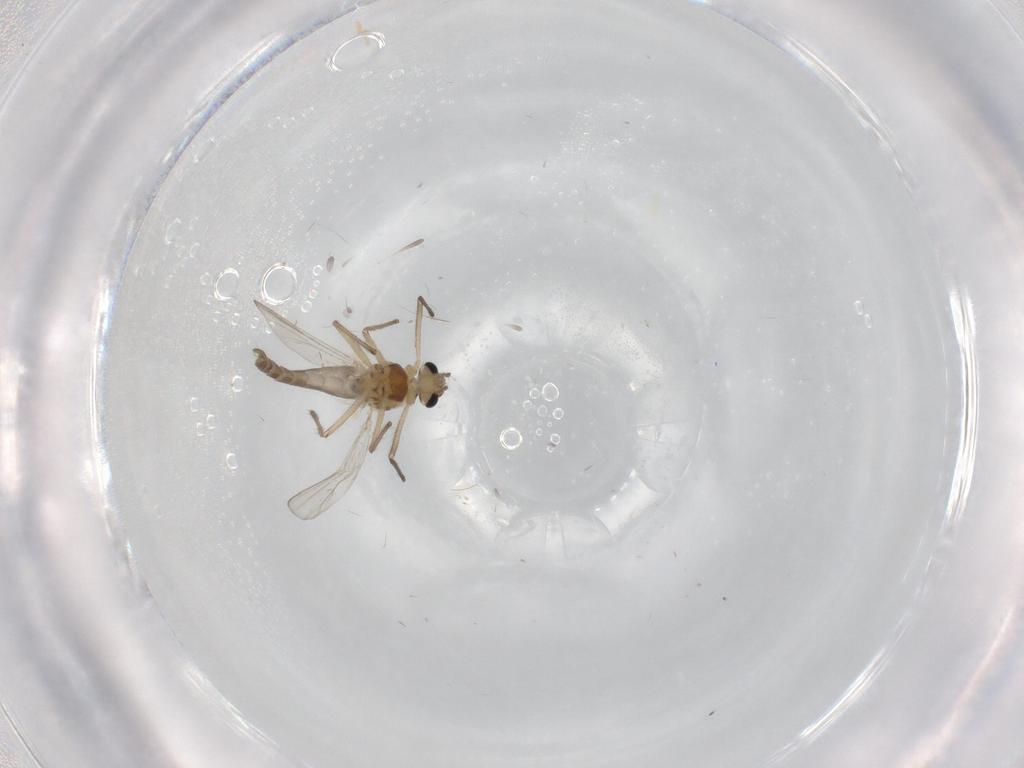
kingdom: Animalia
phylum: Arthropoda
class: Insecta
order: Diptera
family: Chironomidae
